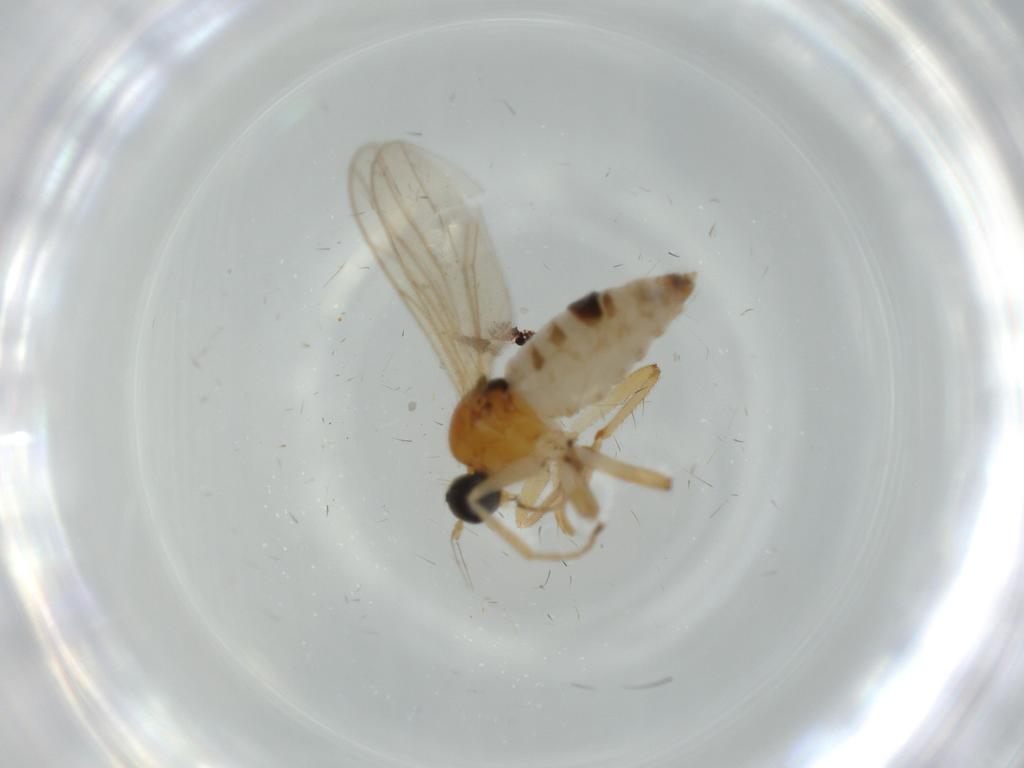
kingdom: Animalia
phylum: Arthropoda
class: Insecta
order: Diptera
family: Hybotidae
